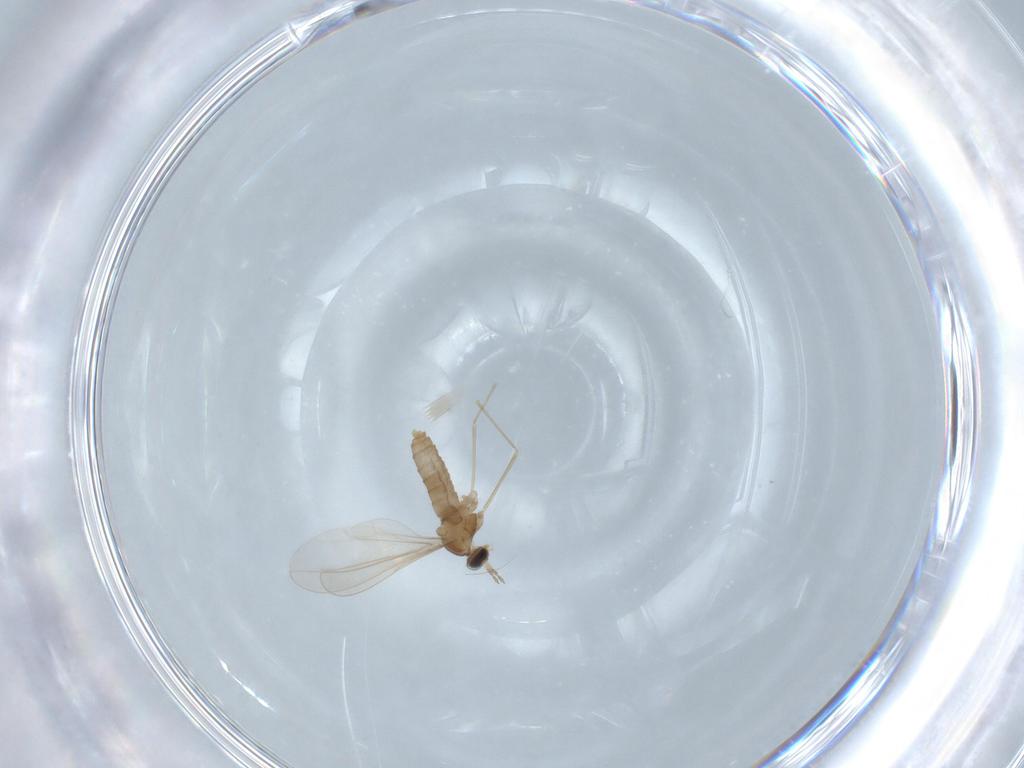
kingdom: Animalia
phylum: Arthropoda
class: Insecta
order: Diptera
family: Cecidomyiidae
